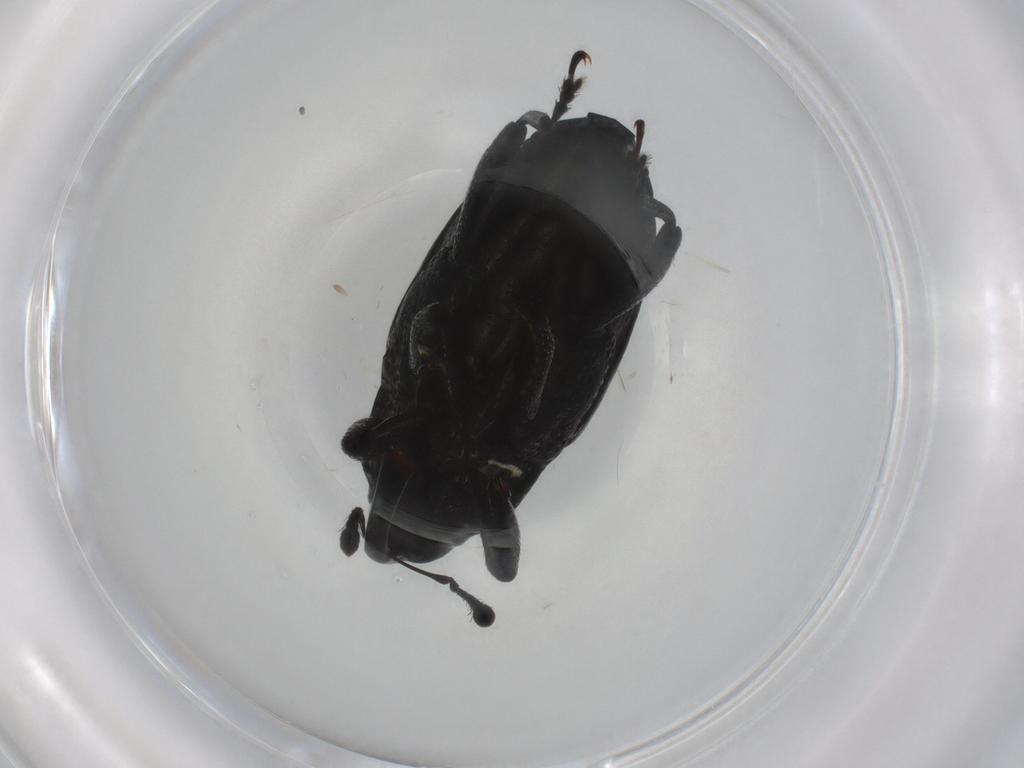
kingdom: Animalia
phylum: Arthropoda
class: Insecta
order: Coleoptera
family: Curculionidae
